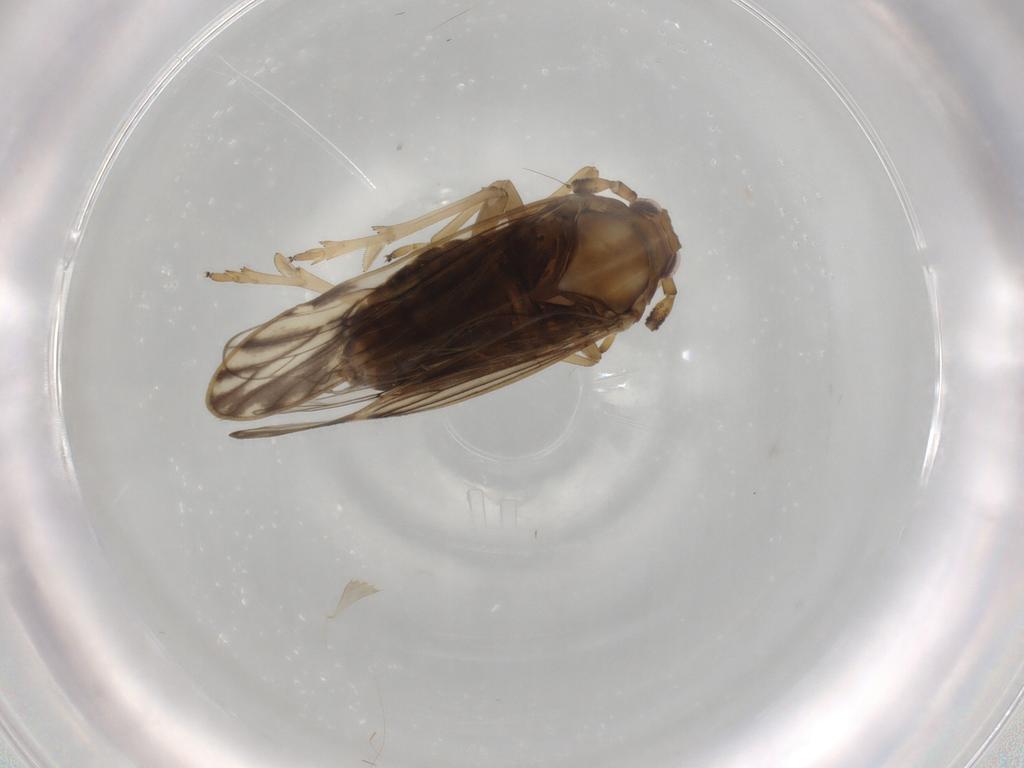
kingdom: Animalia
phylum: Arthropoda
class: Insecta
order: Hemiptera
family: Delphacidae
